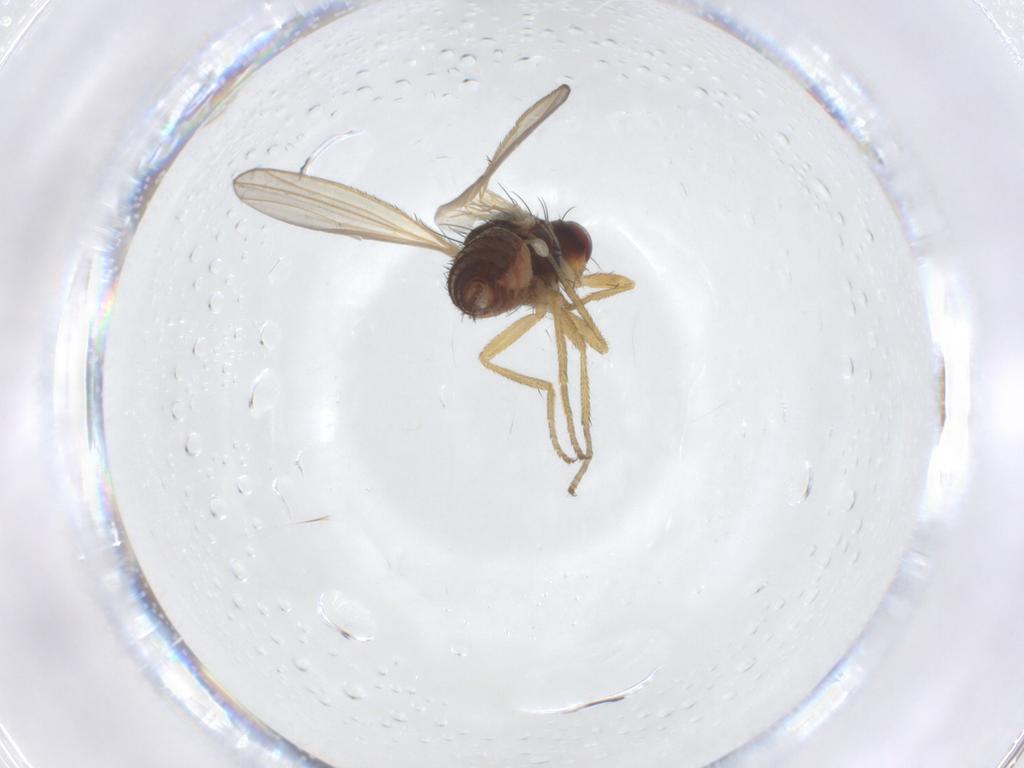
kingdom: Animalia
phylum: Arthropoda
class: Insecta
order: Diptera
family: Heleomyzidae
